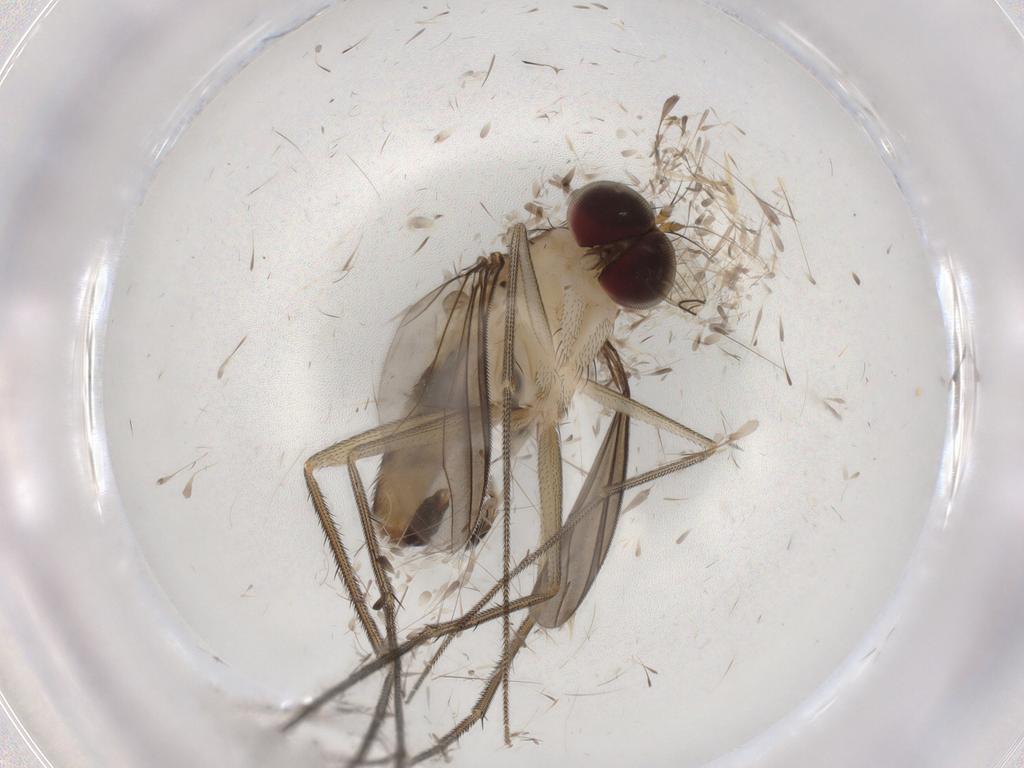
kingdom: Animalia
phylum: Arthropoda
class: Insecta
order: Diptera
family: Dolichopodidae
